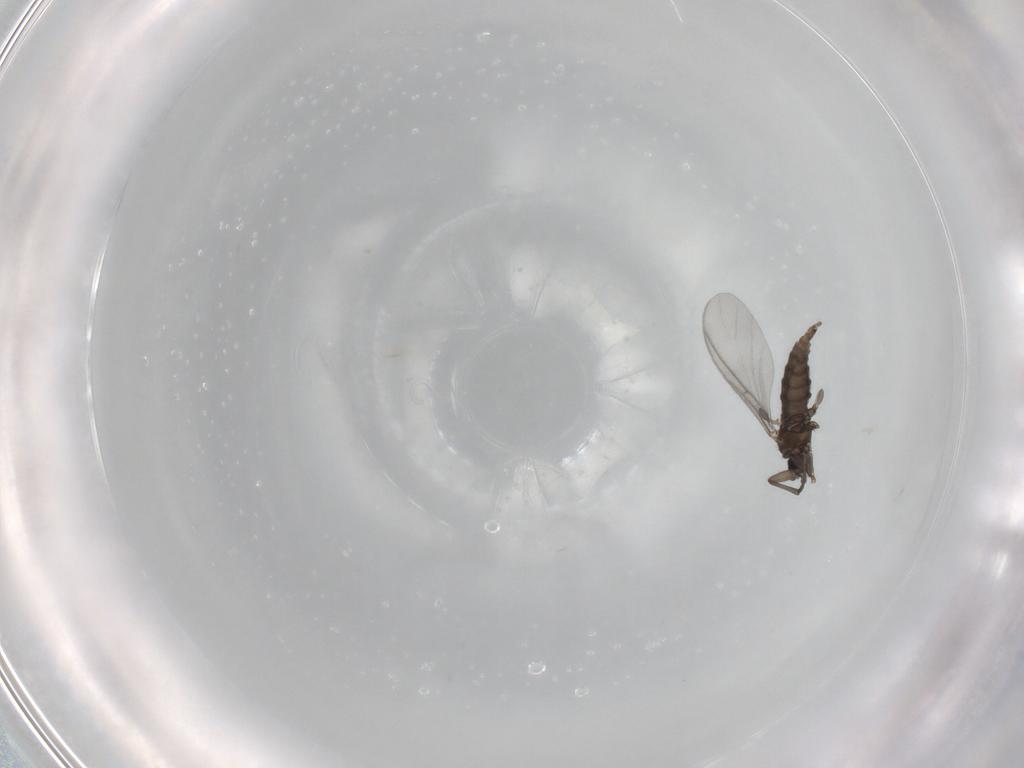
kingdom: Animalia
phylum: Arthropoda
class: Insecta
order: Diptera
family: Sciaridae
